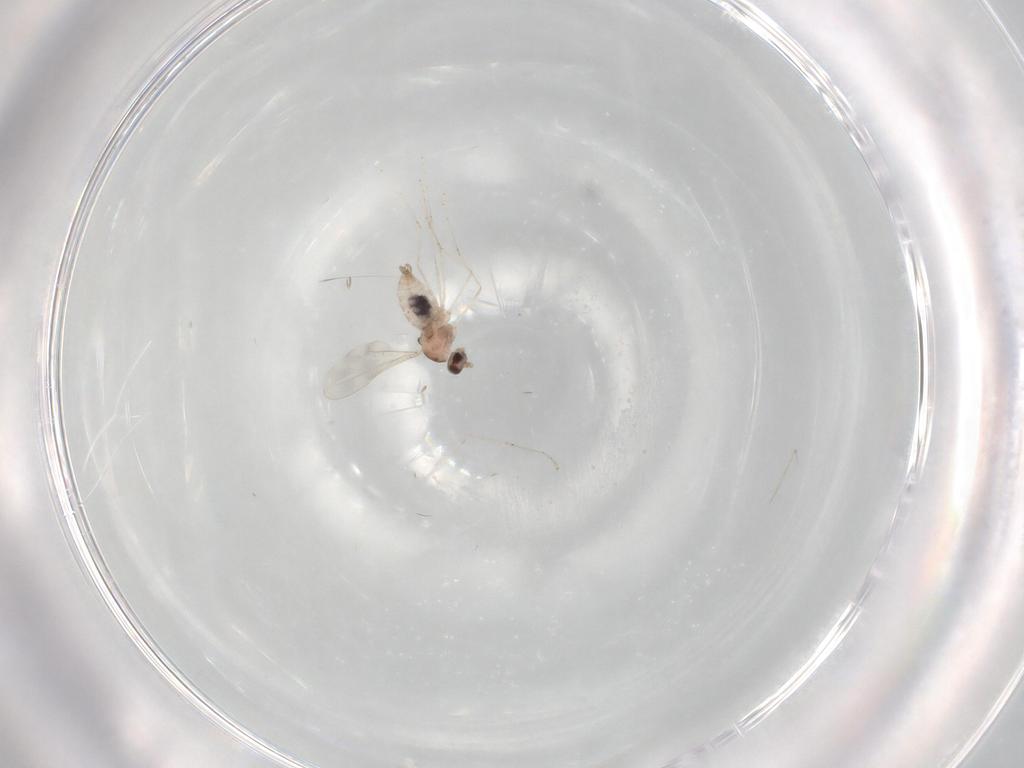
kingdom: Animalia
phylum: Arthropoda
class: Insecta
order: Diptera
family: Cecidomyiidae
